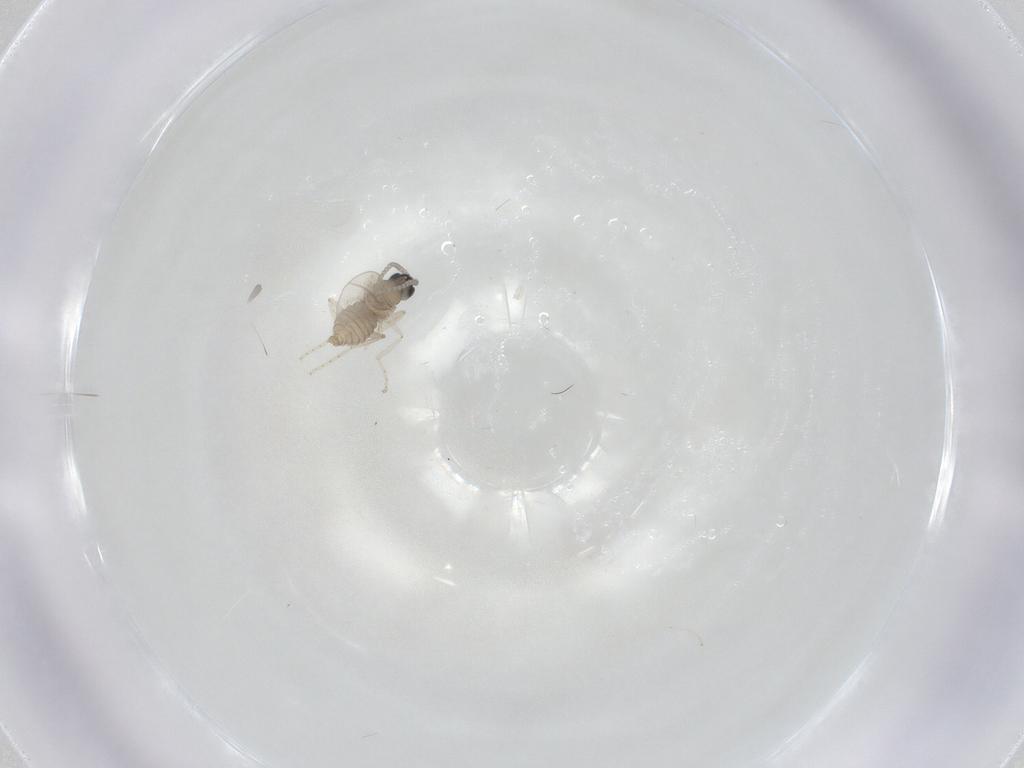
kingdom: Animalia
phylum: Arthropoda
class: Insecta
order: Diptera
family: Cecidomyiidae
